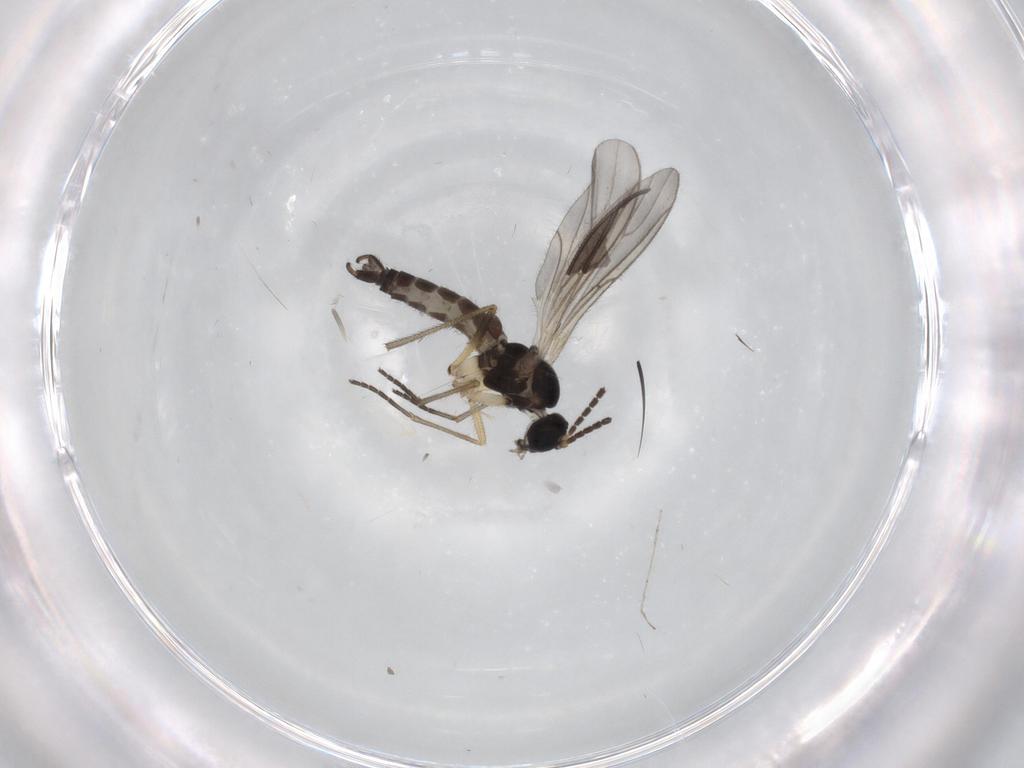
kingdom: Animalia
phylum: Arthropoda
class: Insecta
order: Diptera
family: Sciaridae
